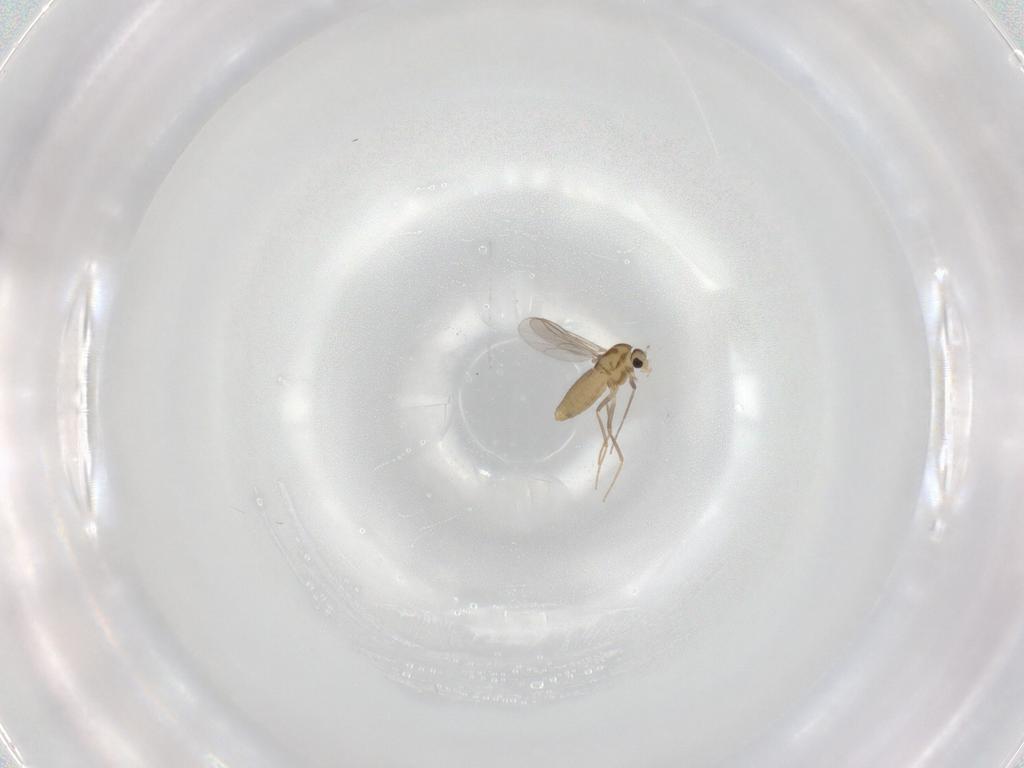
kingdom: Animalia
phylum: Arthropoda
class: Insecta
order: Diptera
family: Chironomidae
